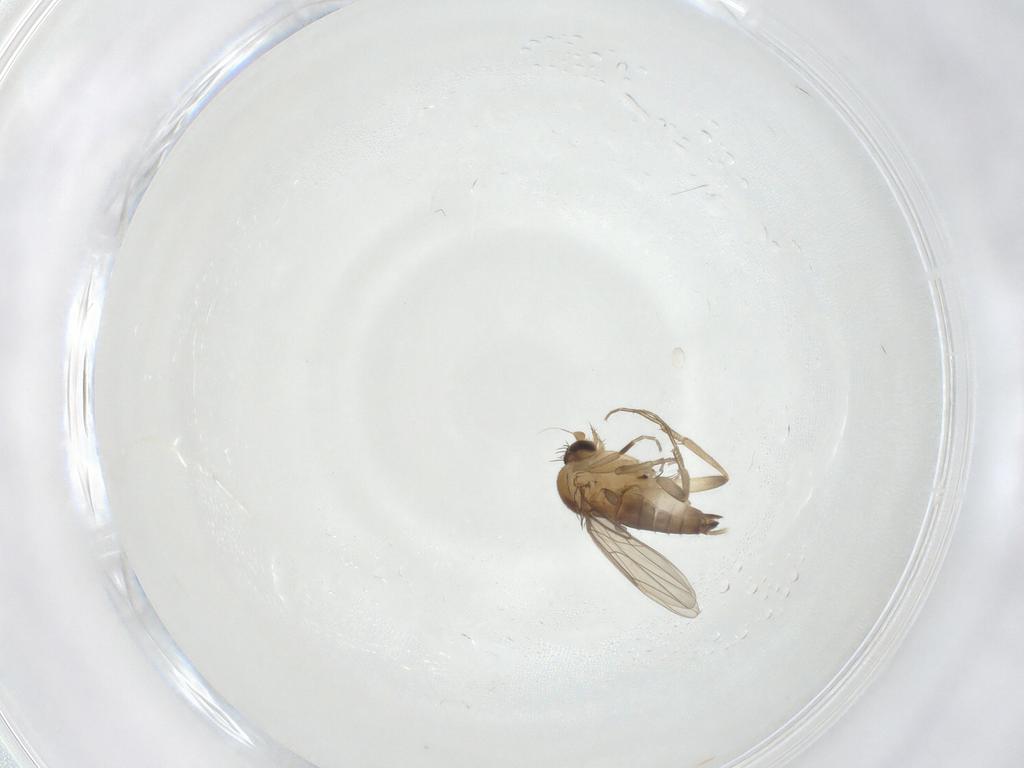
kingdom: Animalia
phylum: Arthropoda
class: Insecta
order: Diptera
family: Phoridae
